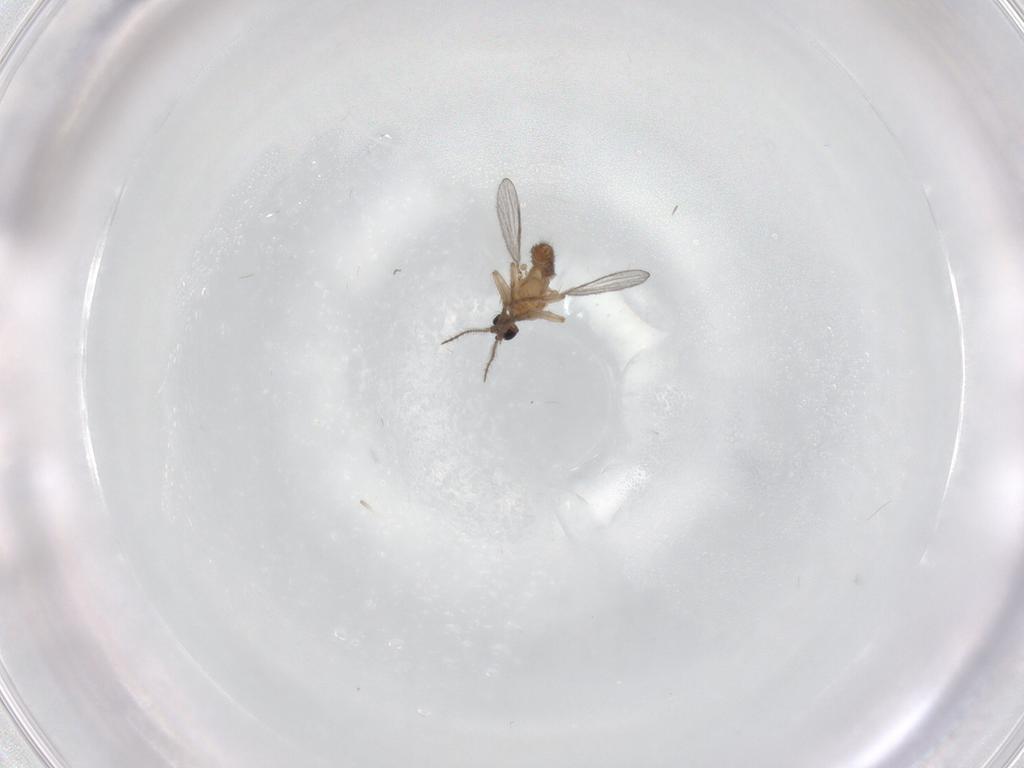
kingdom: Animalia
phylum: Arthropoda
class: Insecta
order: Diptera
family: Ceratopogonidae
